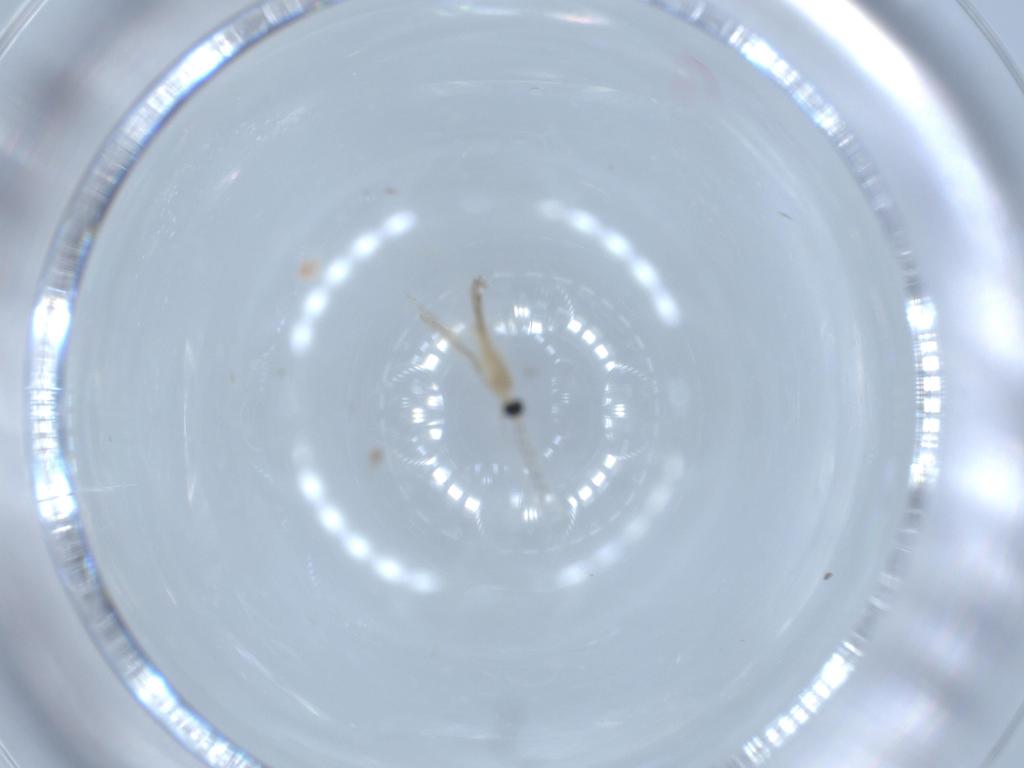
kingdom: Animalia
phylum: Arthropoda
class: Insecta
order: Diptera
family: Cecidomyiidae
